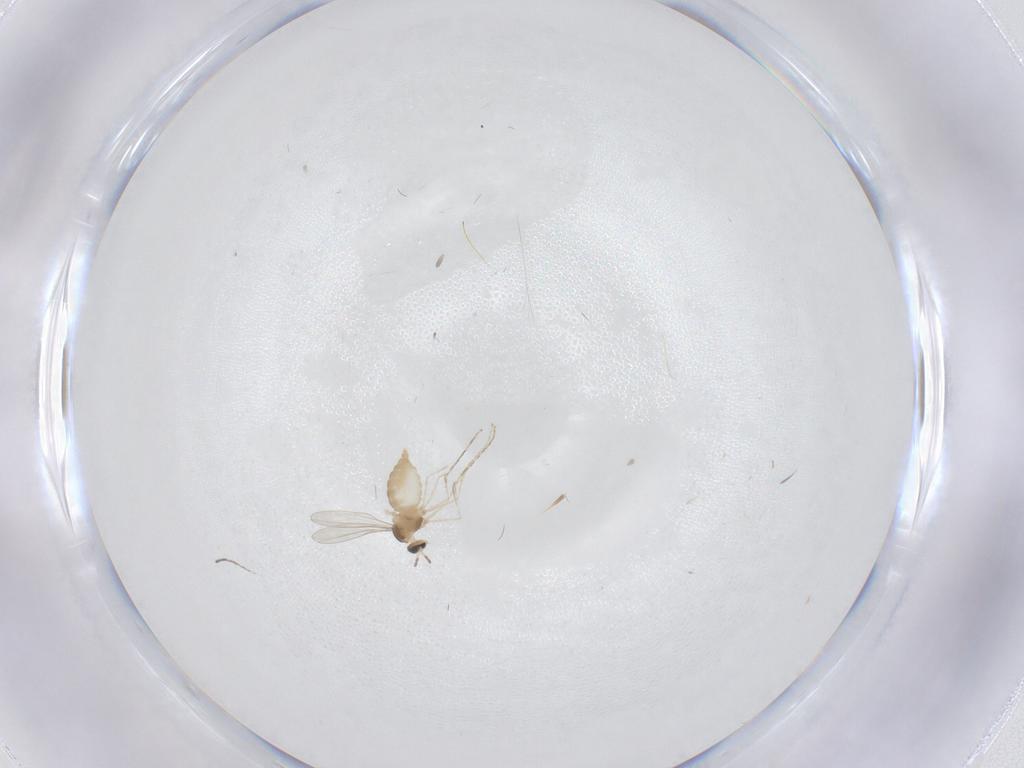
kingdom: Animalia
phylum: Arthropoda
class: Insecta
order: Diptera
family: Cecidomyiidae
